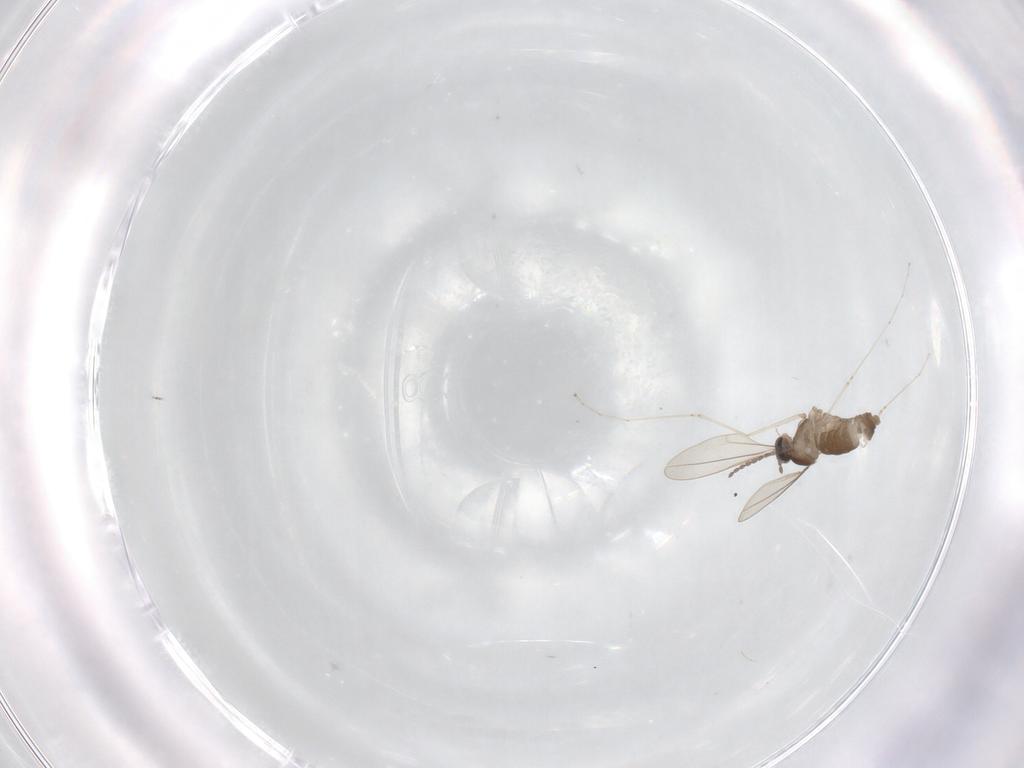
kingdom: Animalia
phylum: Arthropoda
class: Insecta
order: Diptera
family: Cecidomyiidae
